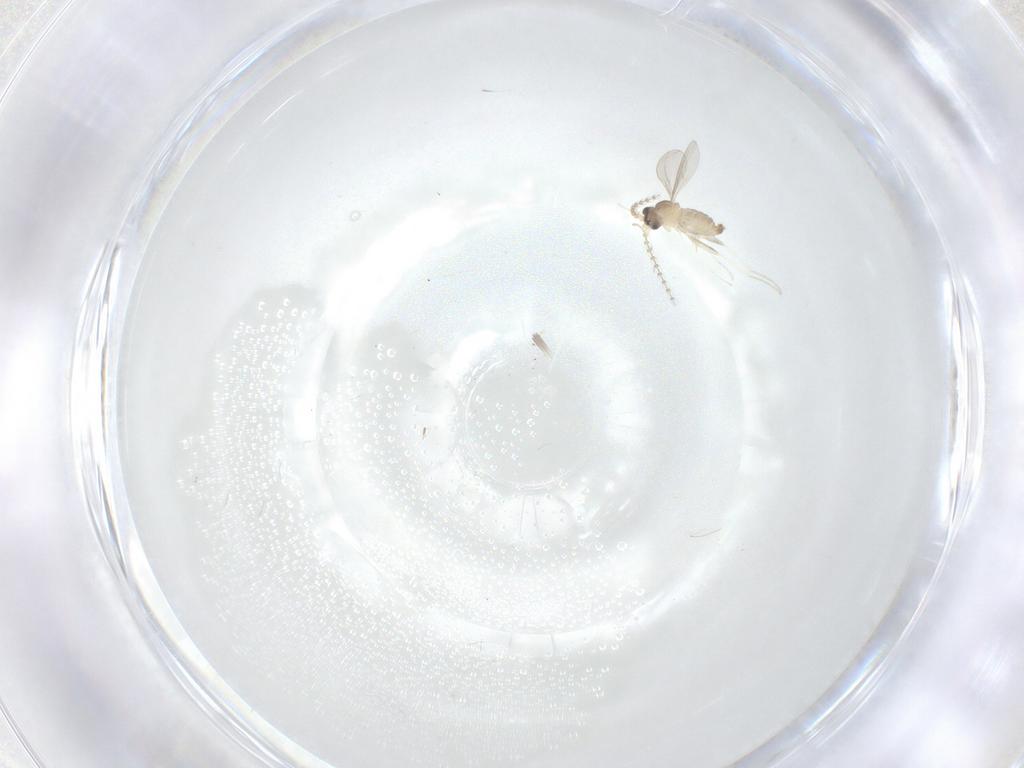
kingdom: Animalia
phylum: Arthropoda
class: Insecta
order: Diptera
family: Cecidomyiidae
